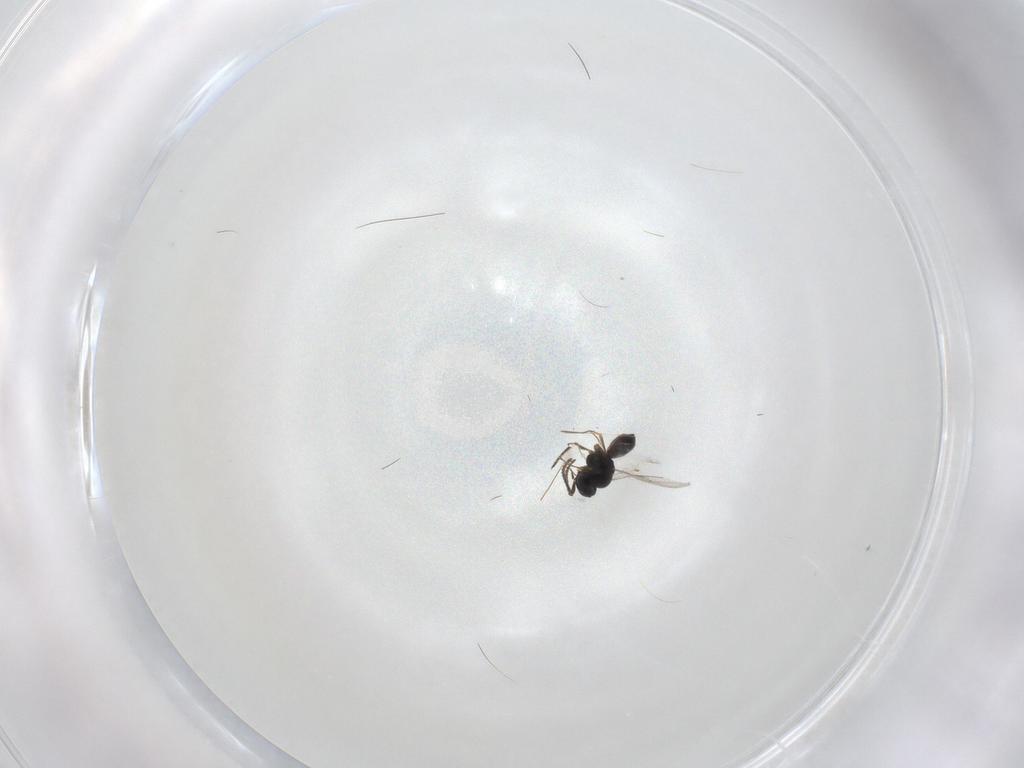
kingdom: Animalia
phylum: Arthropoda
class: Insecta
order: Hymenoptera
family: Scelionidae
